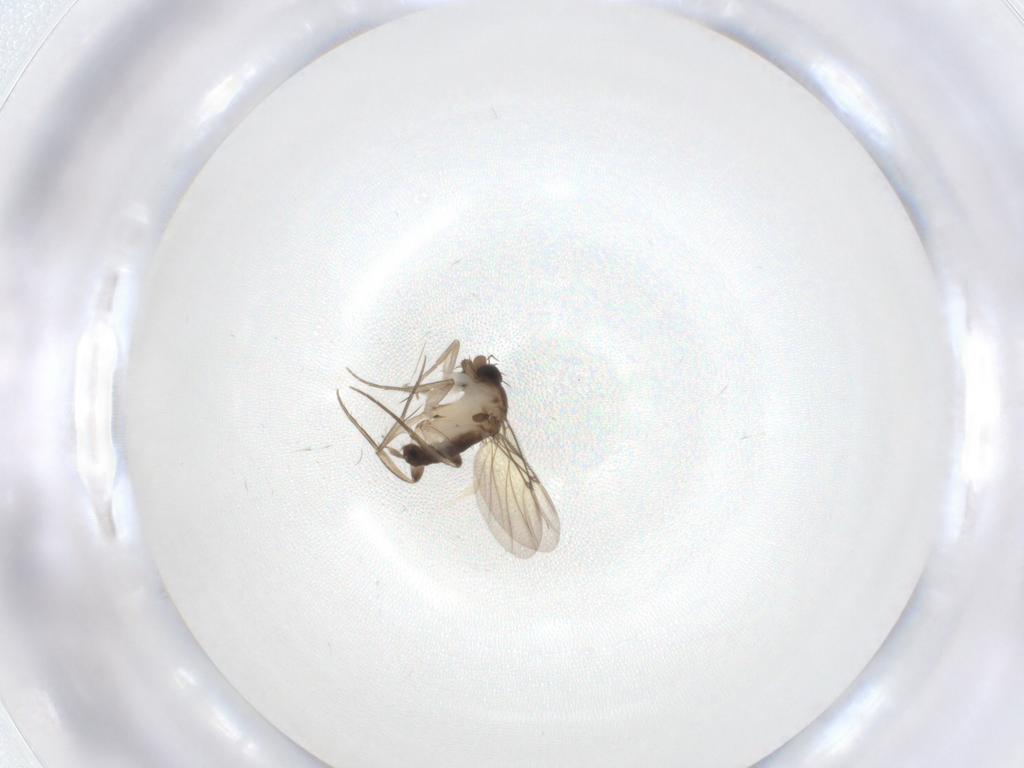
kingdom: Animalia
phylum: Arthropoda
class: Insecta
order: Diptera
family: Phoridae
